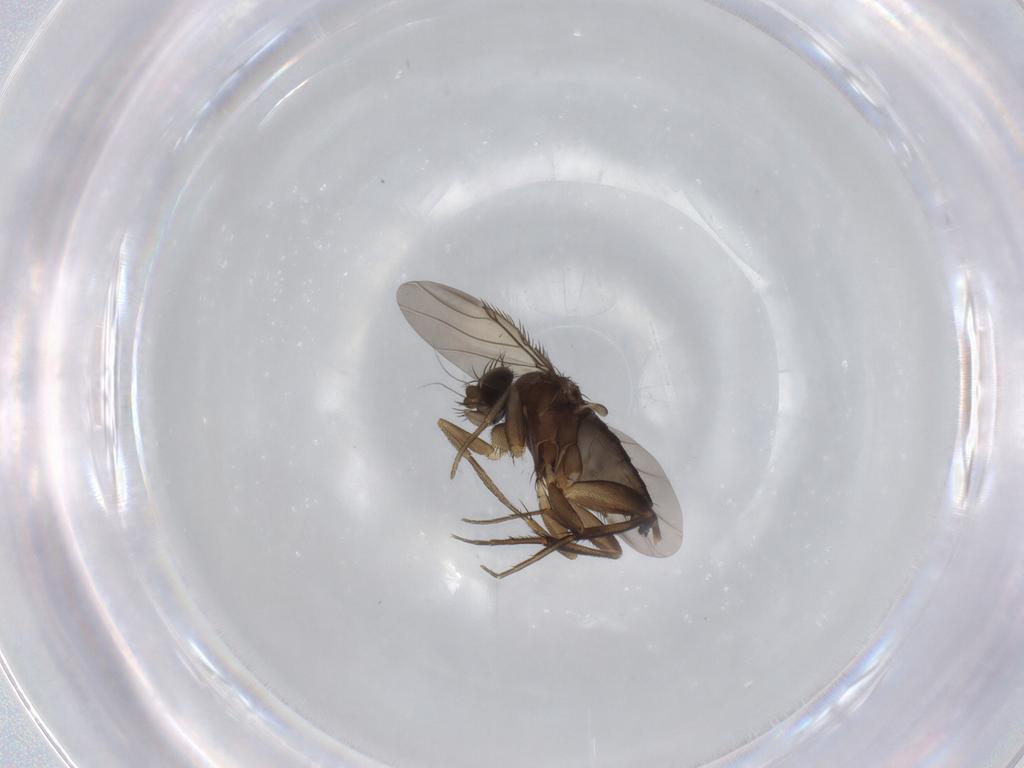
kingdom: Animalia
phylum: Arthropoda
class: Insecta
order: Diptera
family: Phoridae
